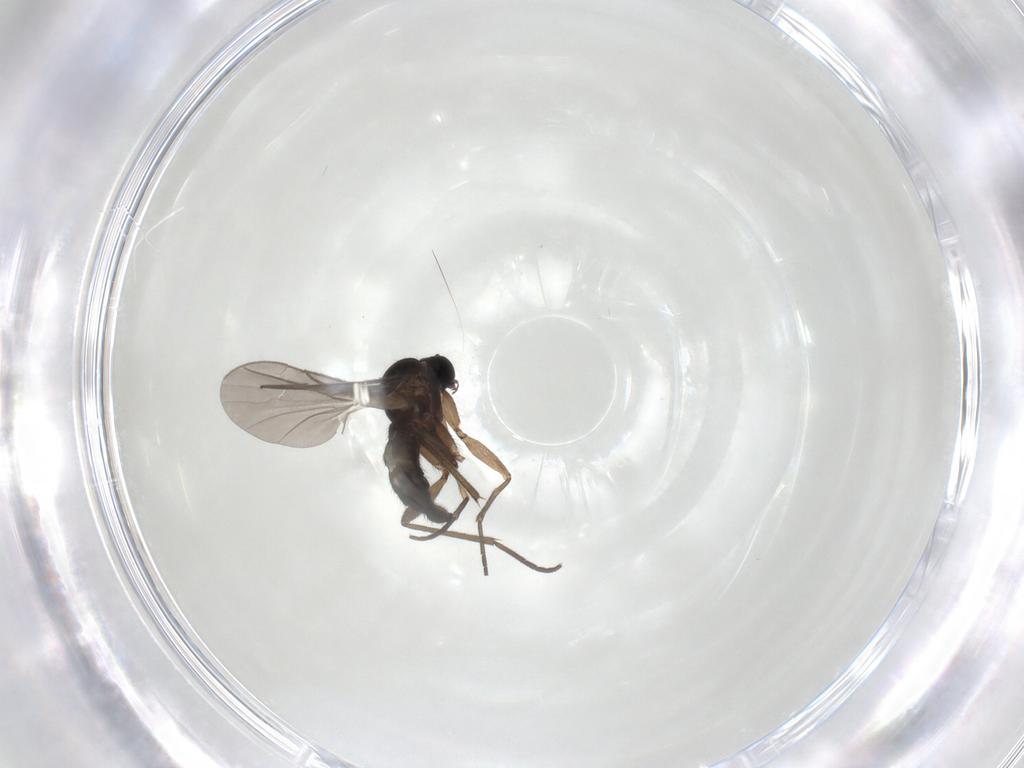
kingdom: Animalia
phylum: Arthropoda
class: Insecta
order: Diptera
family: Sciaridae
